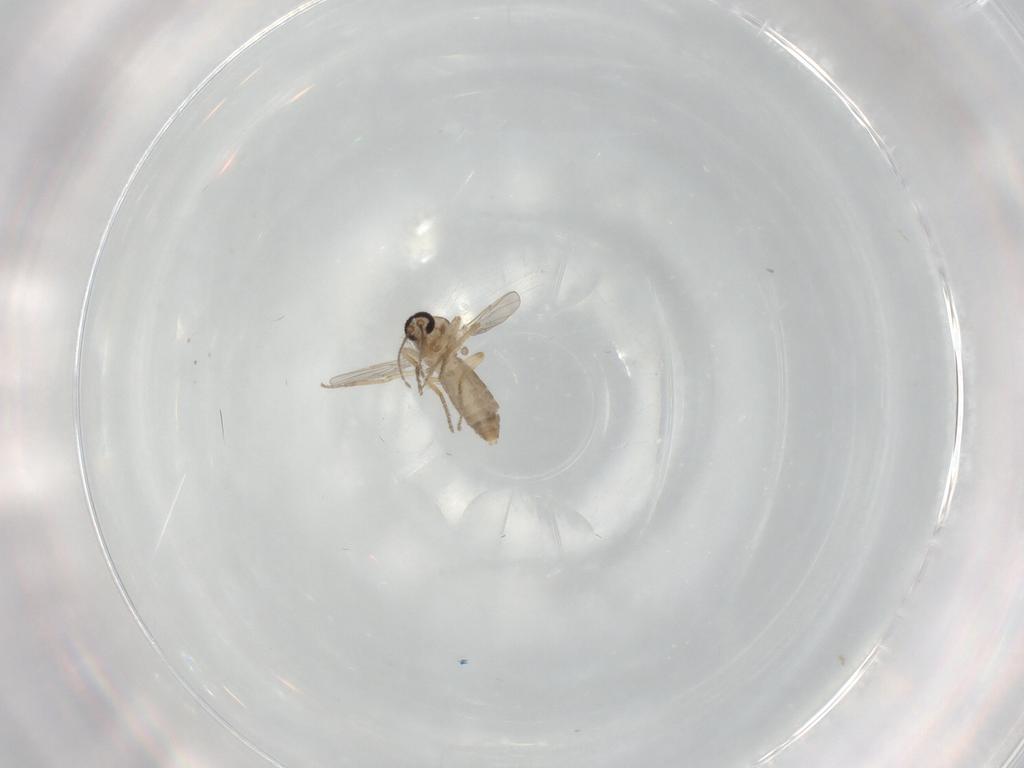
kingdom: Animalia
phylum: Arthropoda
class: Insecta
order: Diptera
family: Ceratopogonidae
